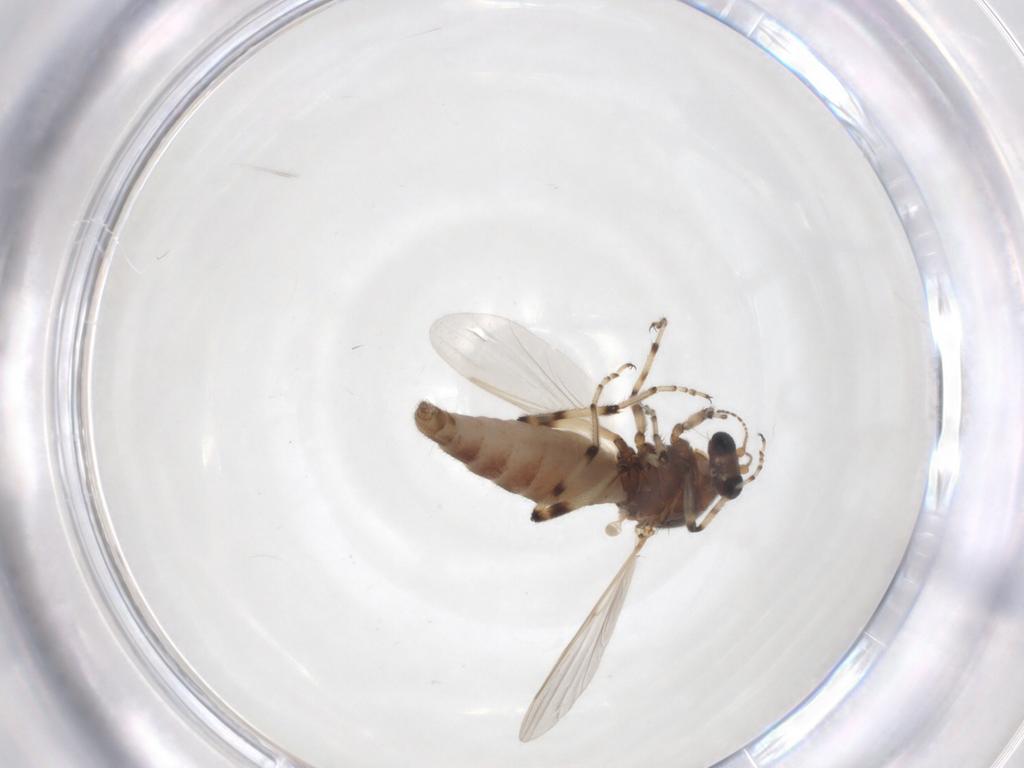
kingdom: Animalia
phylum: Arthropoda
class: Insecta
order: Diptera
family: Ceratopogonidae
